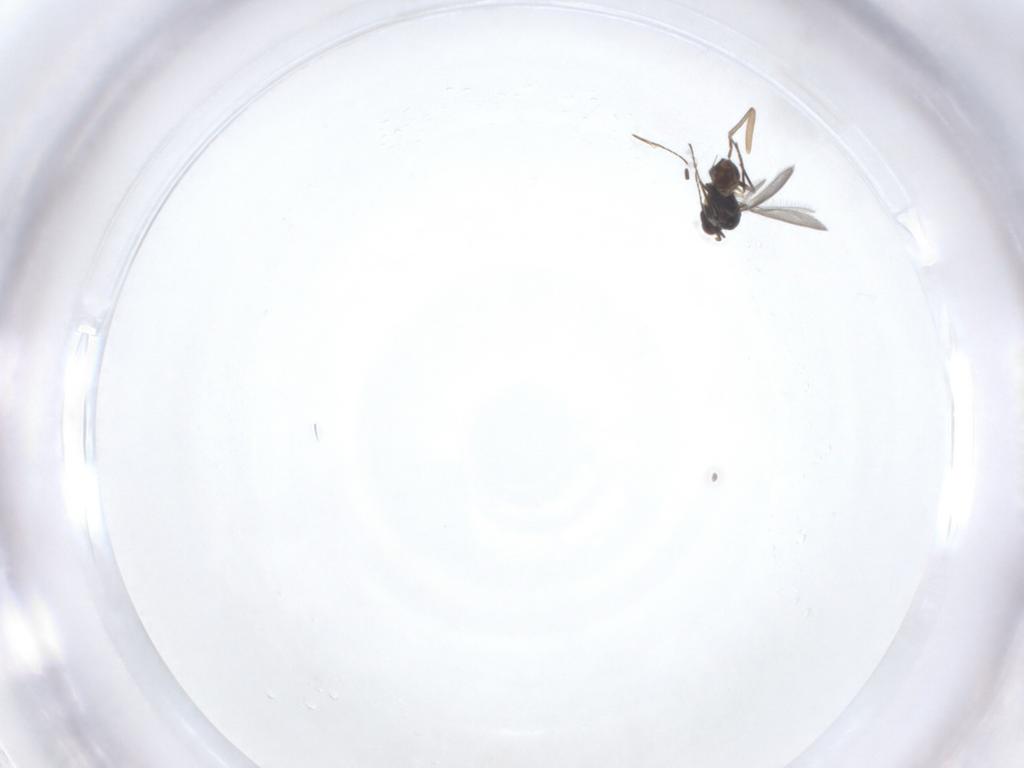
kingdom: Animalia
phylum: Arthropoda
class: Insecta
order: Hymenoptera
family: Mymaridae
